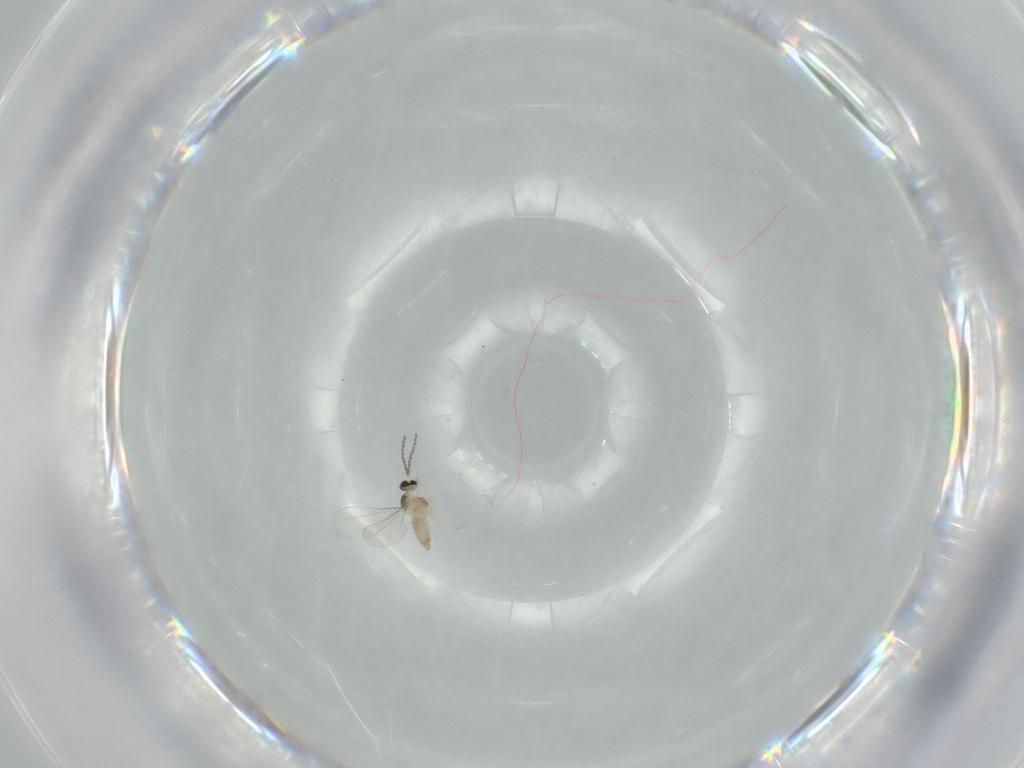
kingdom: Animalia
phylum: Arthropoda
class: Insecta
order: Diptera
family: Cecidomyiidae
